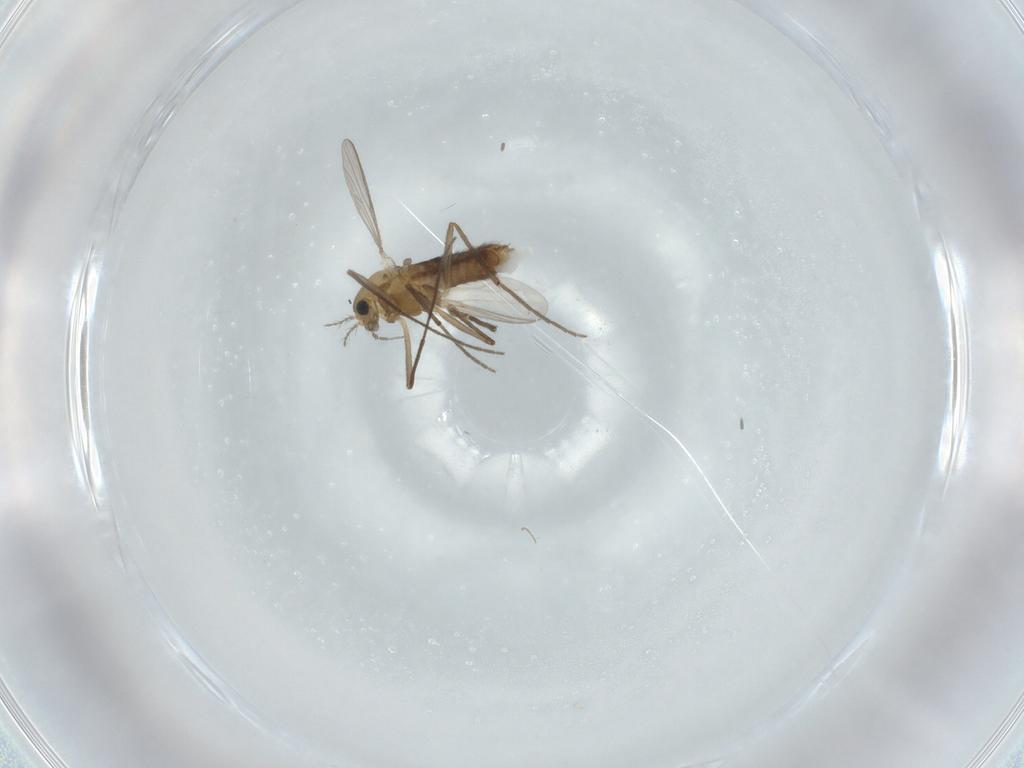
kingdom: Animalia
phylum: Arthropoda
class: Insecta
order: Diptera
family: Chironomidae
